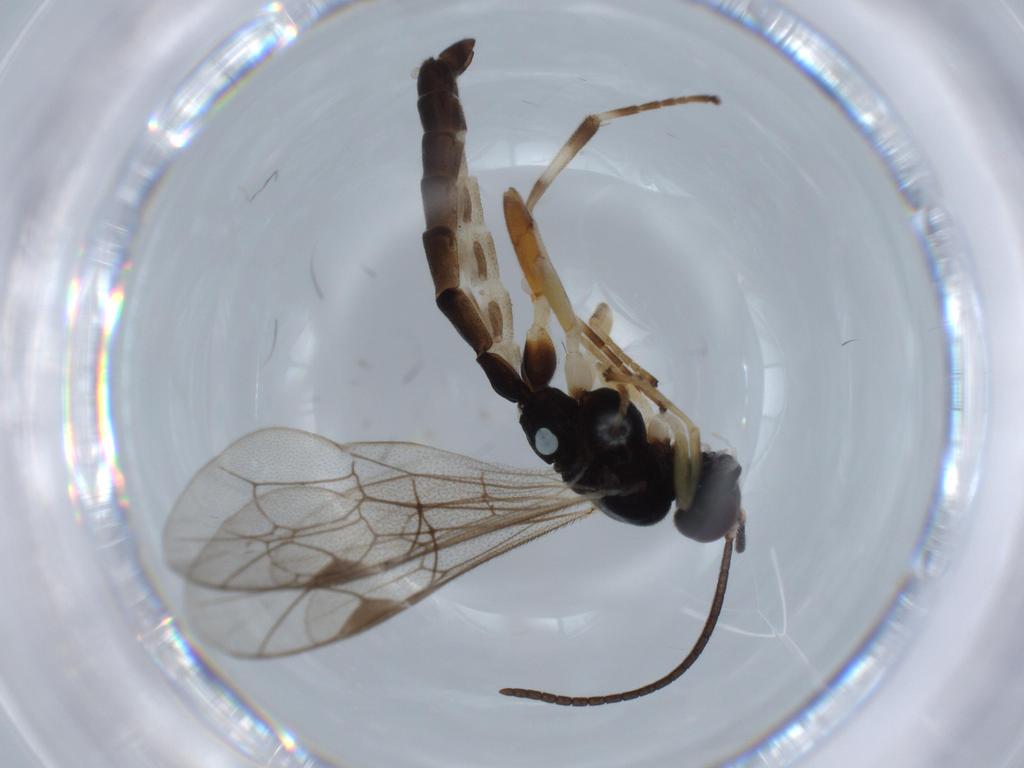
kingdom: Animalia
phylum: Arthropoda
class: Insecta
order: Hymenoptera
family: Ichneumonidae
